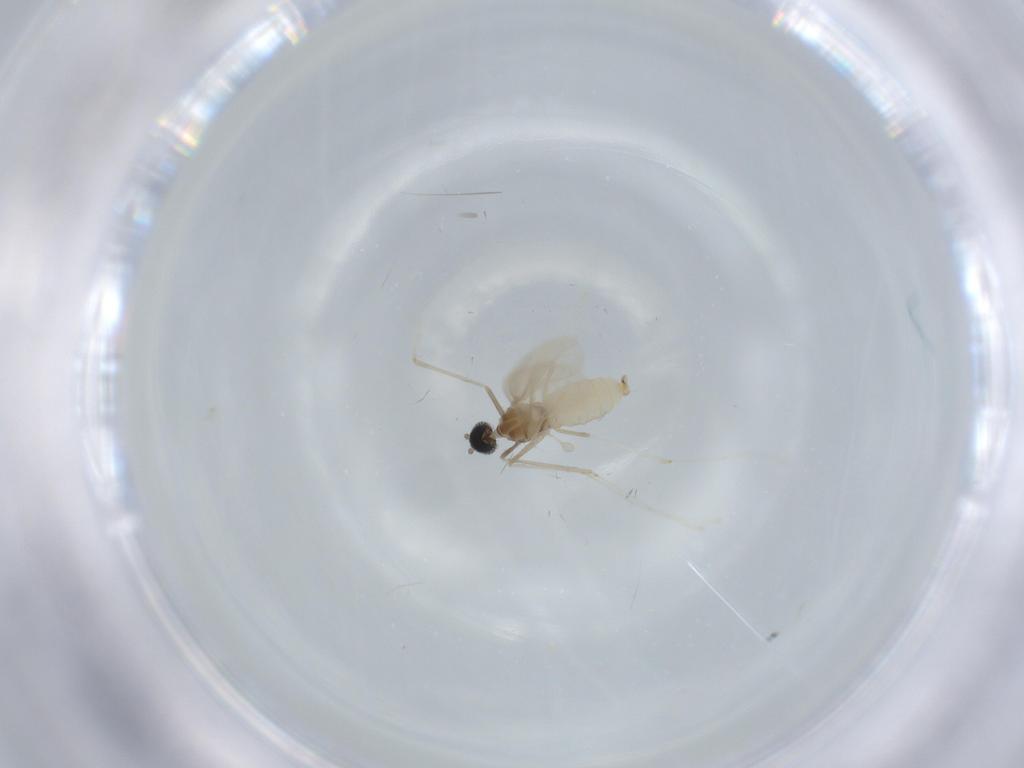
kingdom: Animalia
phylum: Arthropoda
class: Insecta
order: Diptera
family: Cecidomyiidae
